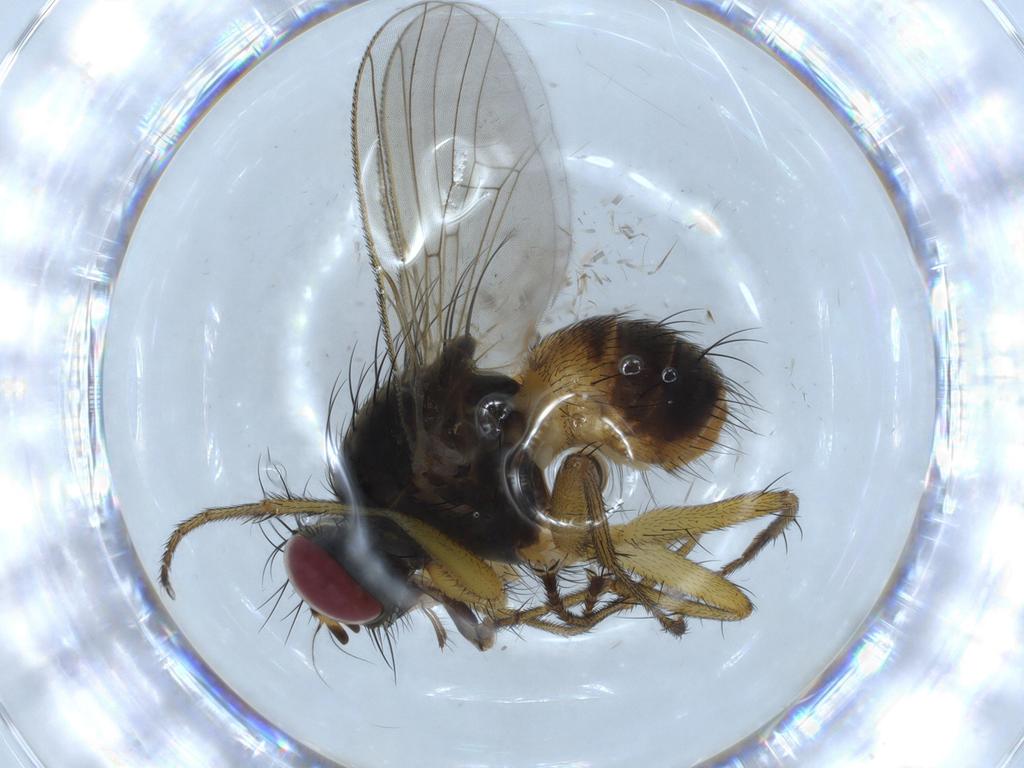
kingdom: Animalia
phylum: Arthropoda
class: Insecta
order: Diptera
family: Muscidae
